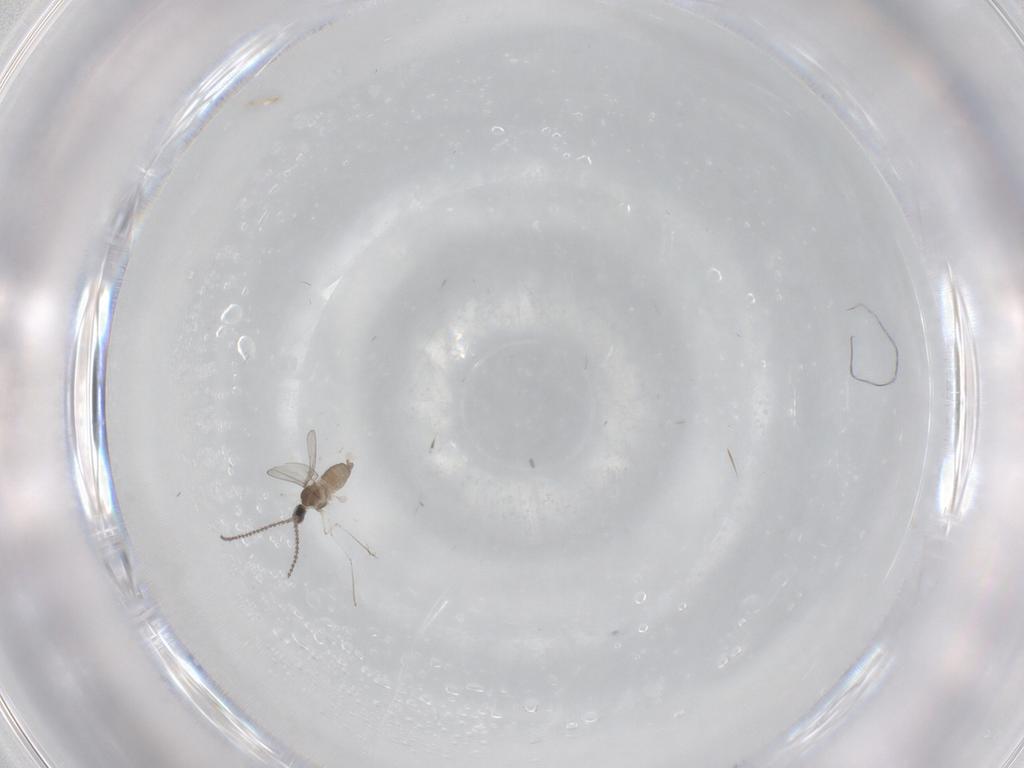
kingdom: Animalia
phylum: Arthropoda
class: Insecta
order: Diptera
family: Cecidomyiidae
